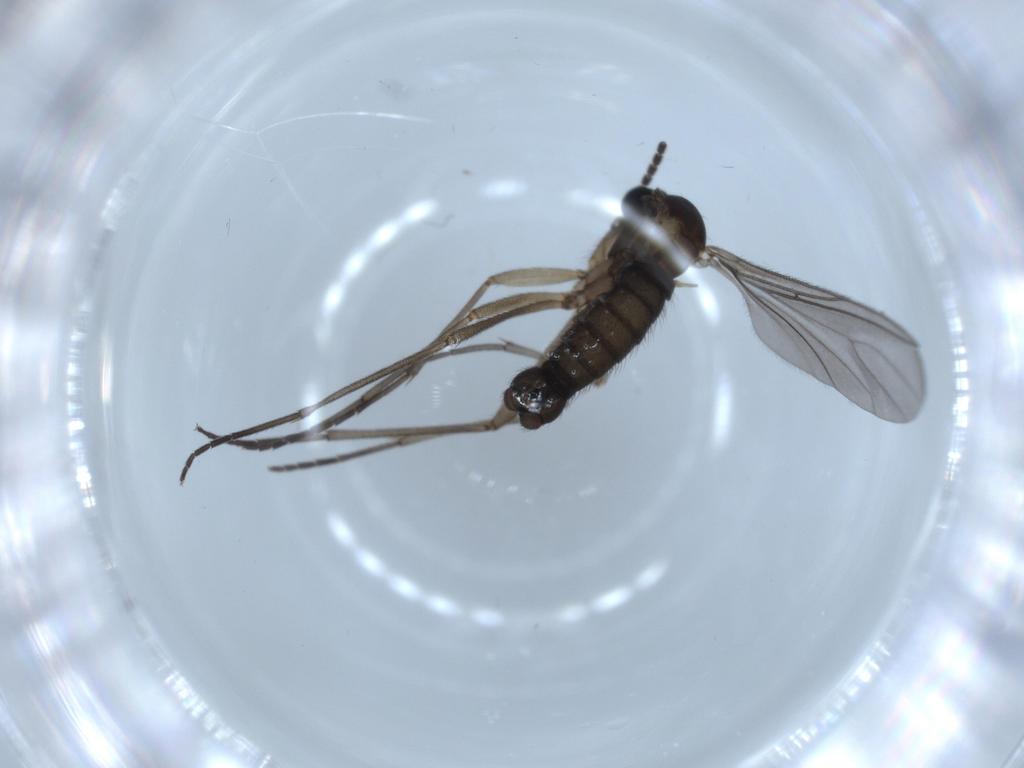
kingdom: Animalia
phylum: Arthropoda
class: Insecta
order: Diptera
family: Sciaridae
